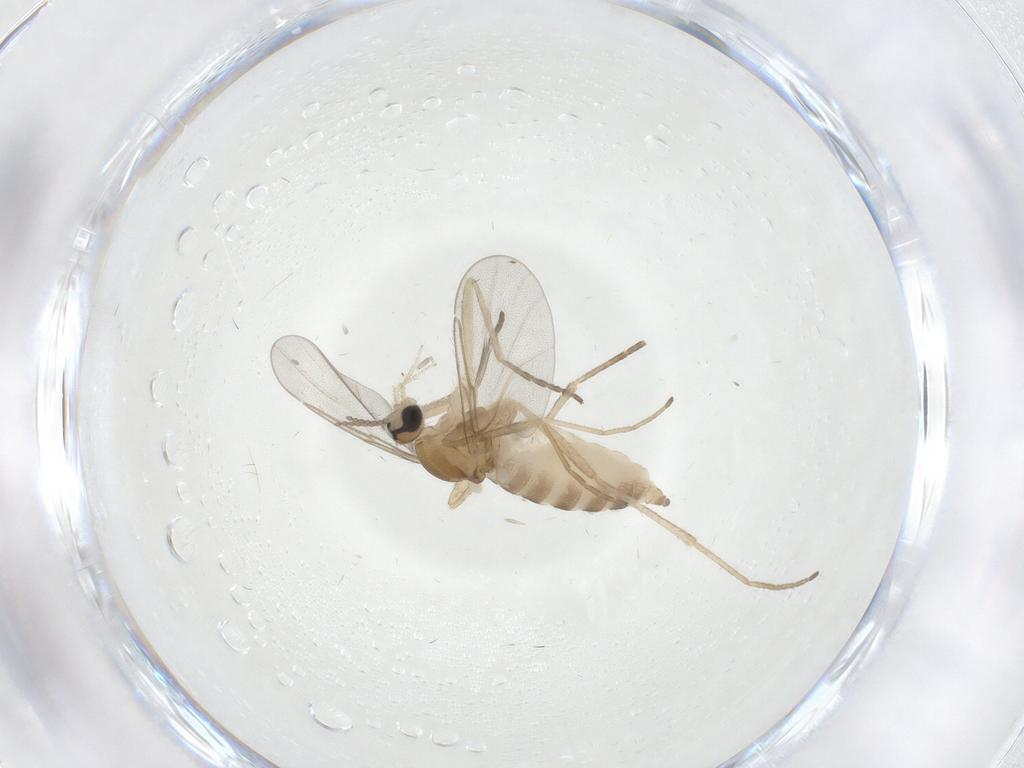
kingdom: Animalia
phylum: Arthropoda
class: Insecta
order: Diptera
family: Cecidomyiidae
